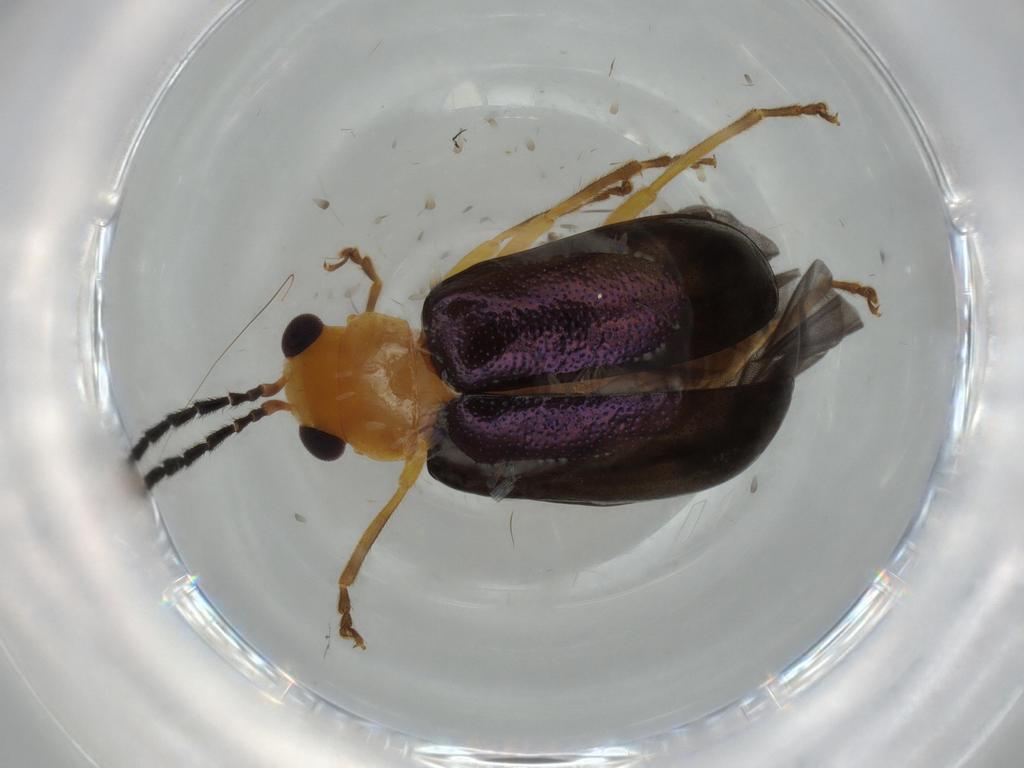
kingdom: Animalia
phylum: Arthropoda
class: Insecta
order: Coleoptera
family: Chrysomelidae
